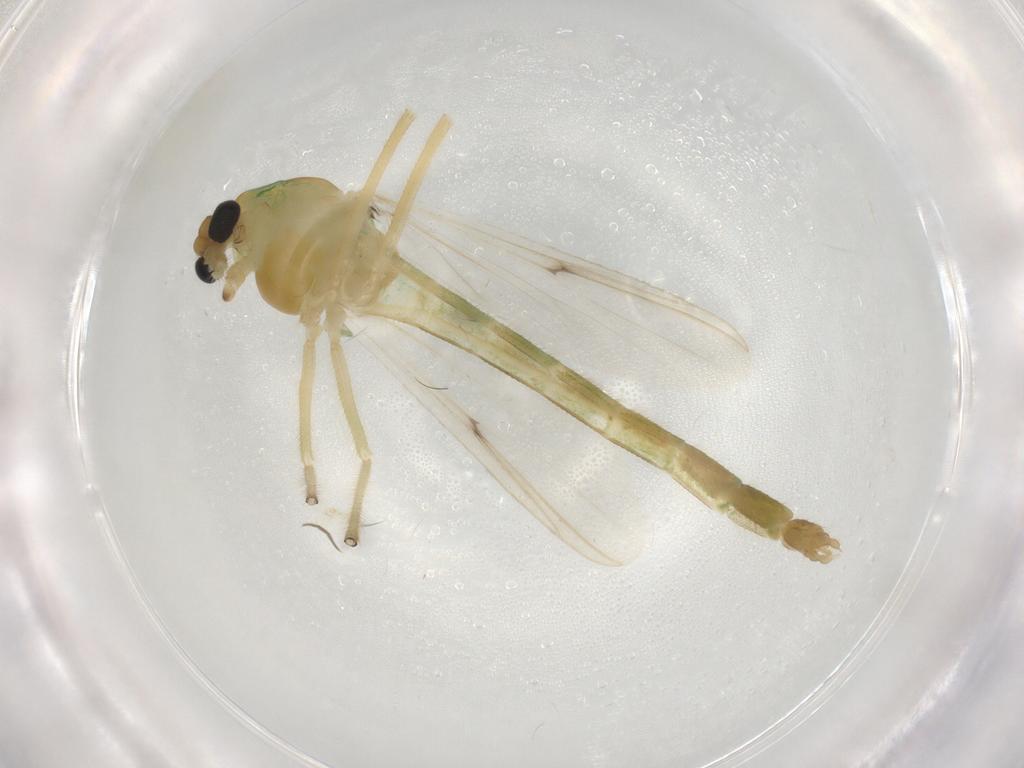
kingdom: Animalia
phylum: Arthropoda
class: Insecta
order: Diptera
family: Chironomidae
